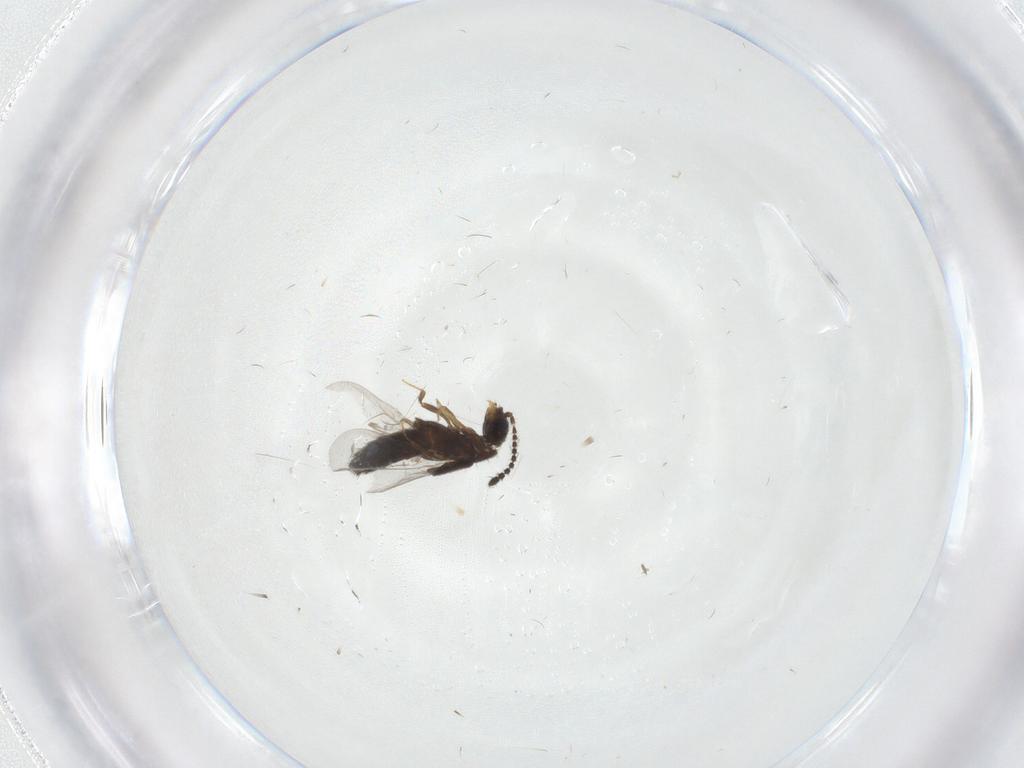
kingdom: Animalia
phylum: Arthropoda
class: Insecta
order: Coleoptera
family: Staphylinidae
